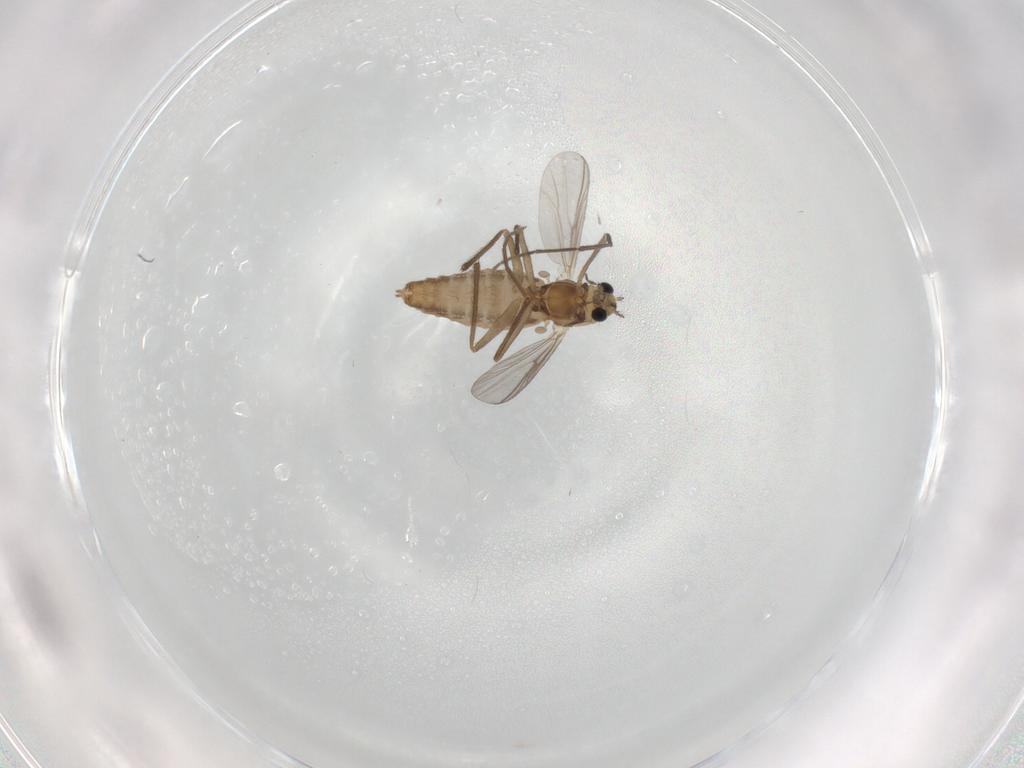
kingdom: Animalia
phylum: Arthropoda
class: Insecta
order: Diptera
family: Chironomidae
